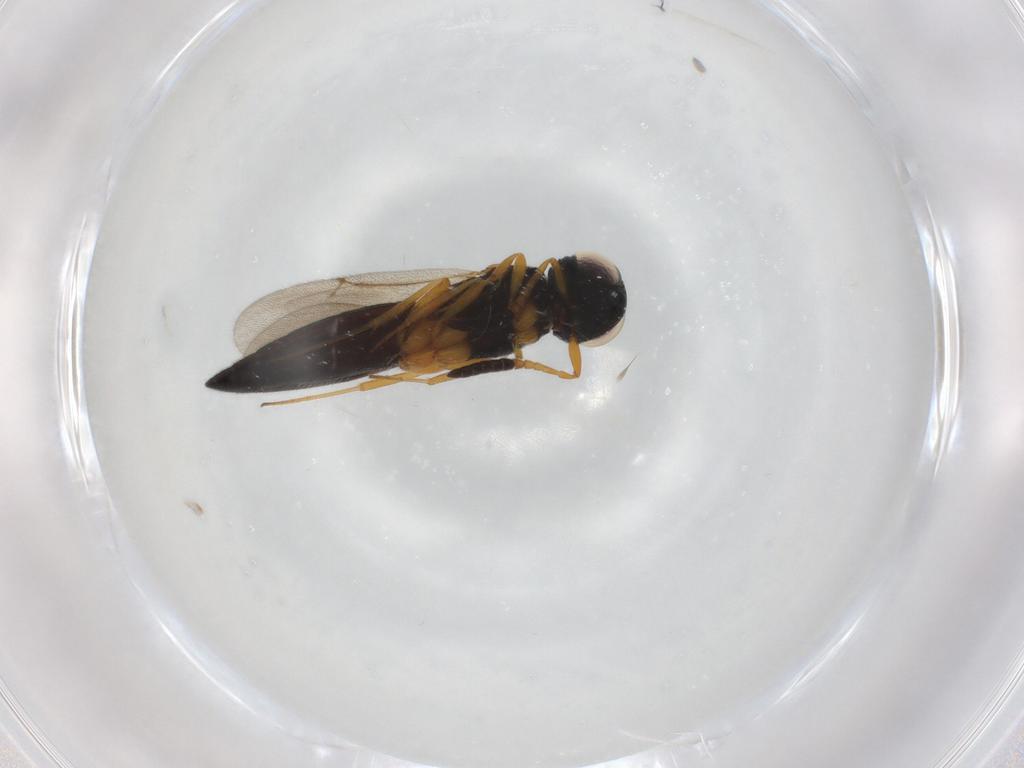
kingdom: Animalia
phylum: Arthropoda
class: Insecta
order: Hymenoptera
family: Scelionidae
